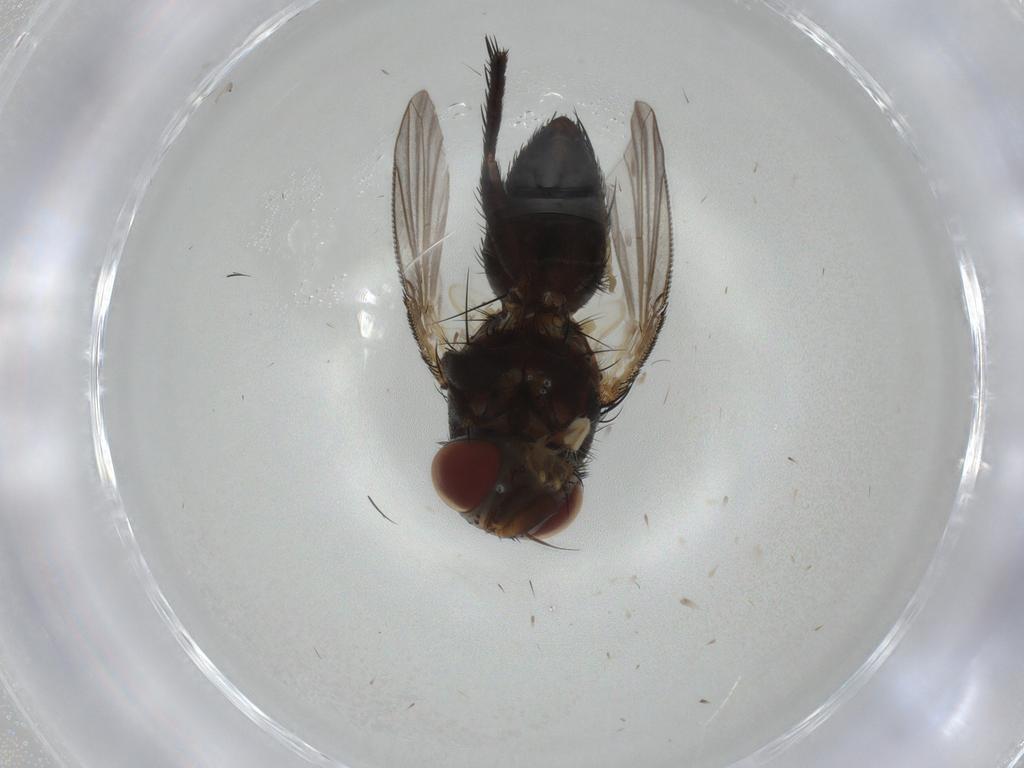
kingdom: Animalia
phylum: Arthropoda
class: Insecta
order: Diptera
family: Tachinidae
